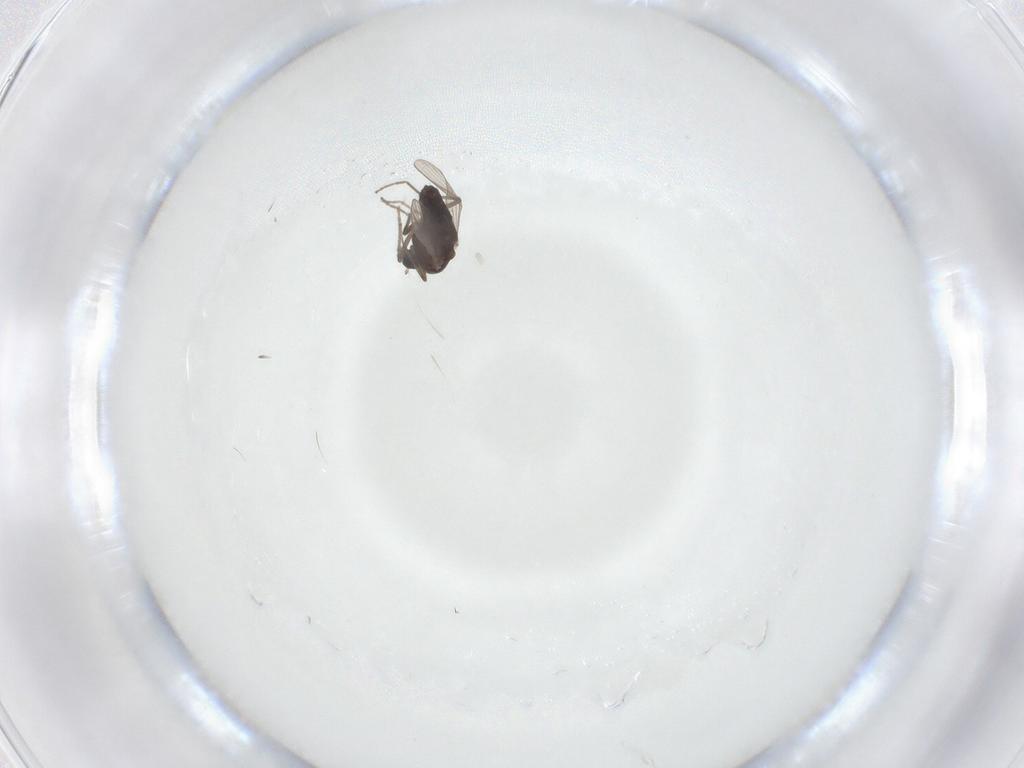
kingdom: Animalia
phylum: Arthropoda
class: Insecta
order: Diptera
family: Chironomidae
